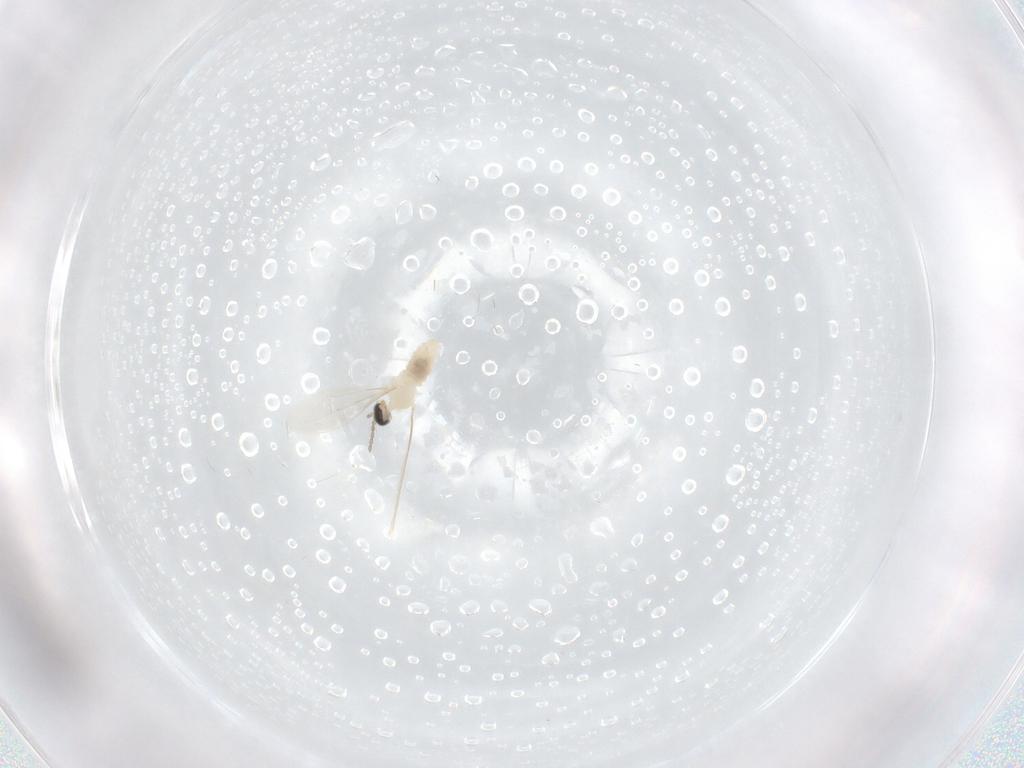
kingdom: Animalia
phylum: Arthropoda
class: Insecta
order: Diptera
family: Cecidomyiidae
